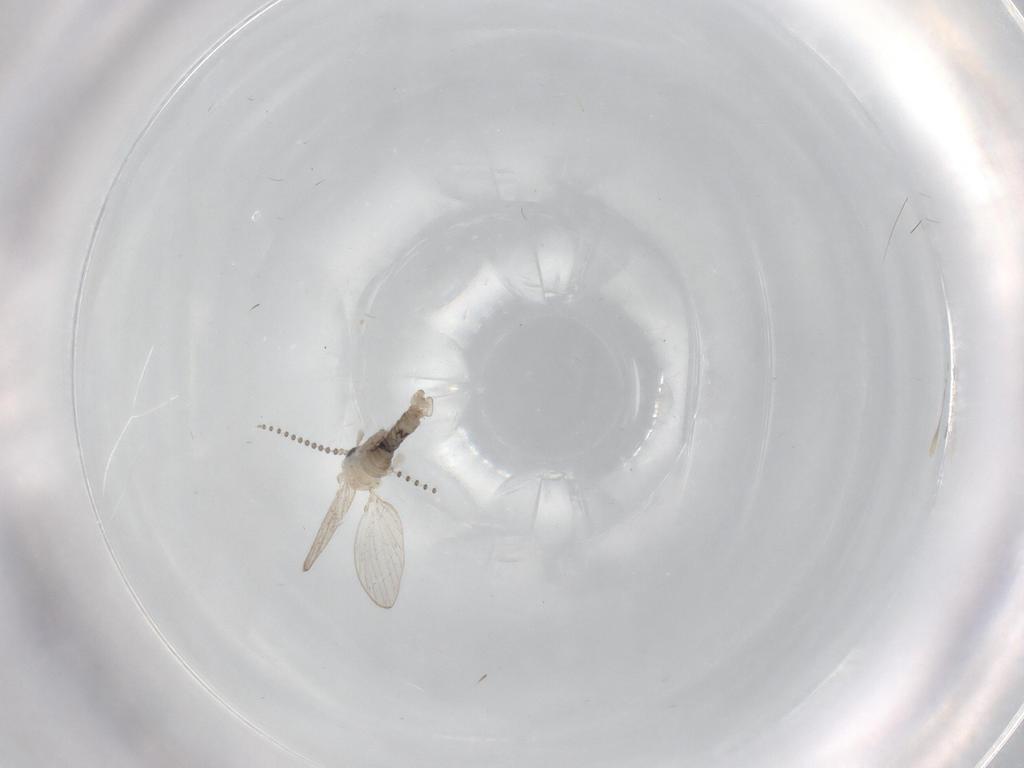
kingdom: Animalia
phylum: Arthropoda
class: Insecta
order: Diptera
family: Psychodidae
